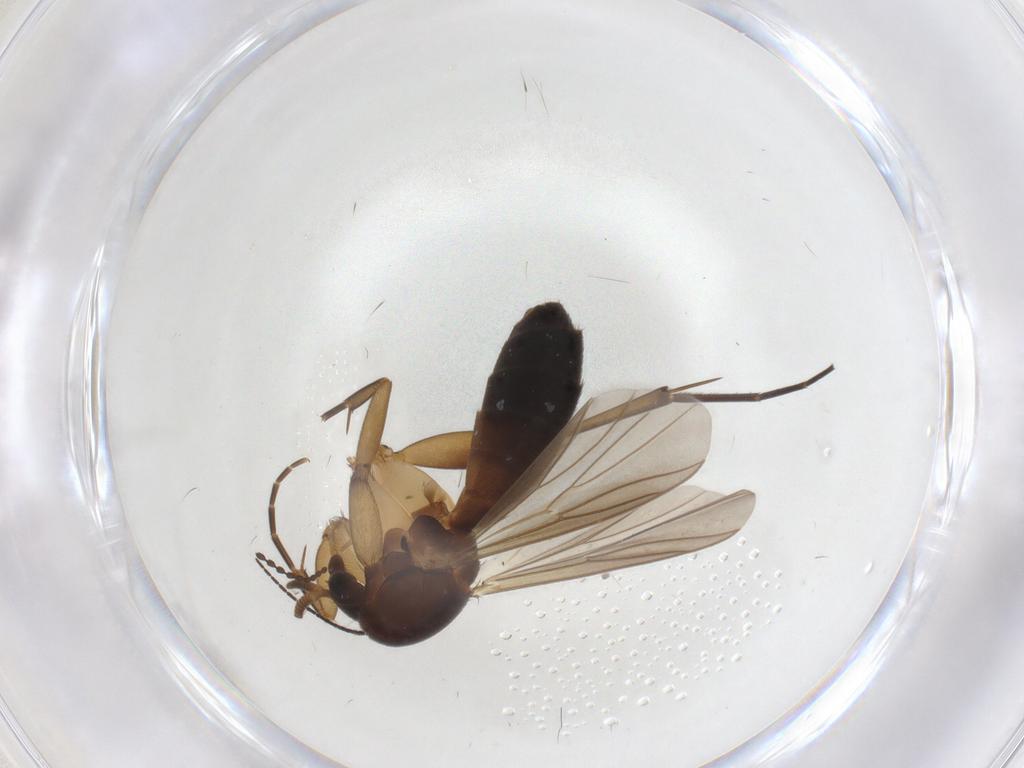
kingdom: Animalia
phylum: Arthropoda
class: Insecta
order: Diptera
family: Mycetophilidae
